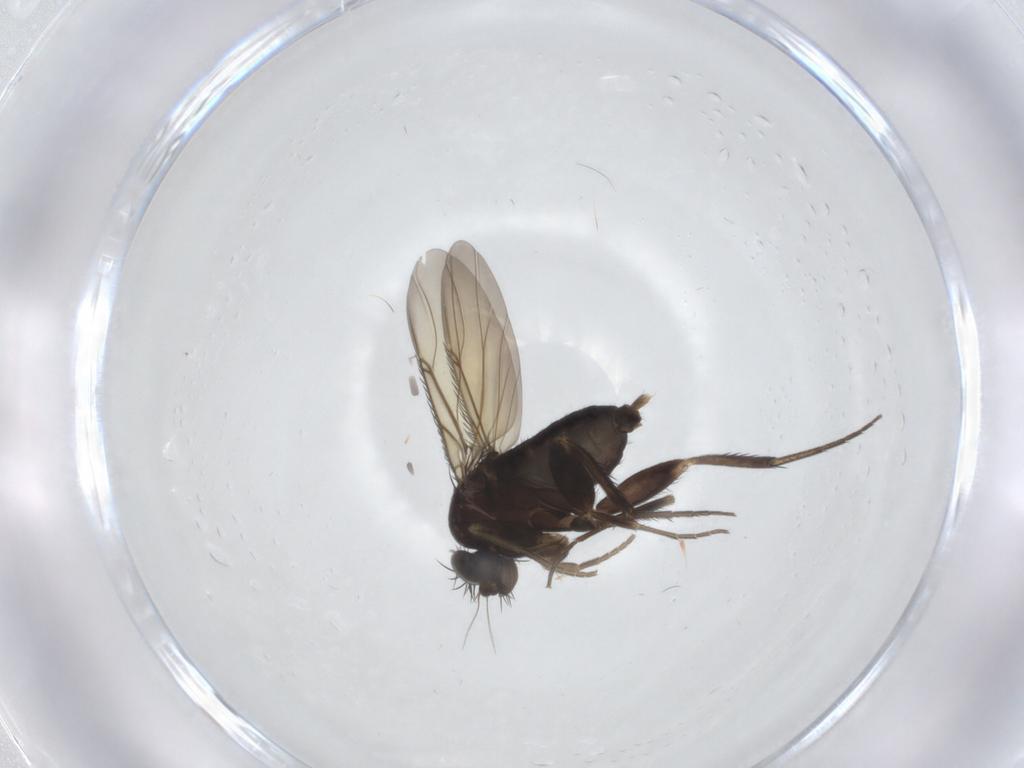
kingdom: Animalia
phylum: Arthropoda
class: Insecta
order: Diptera
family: Phoridae
